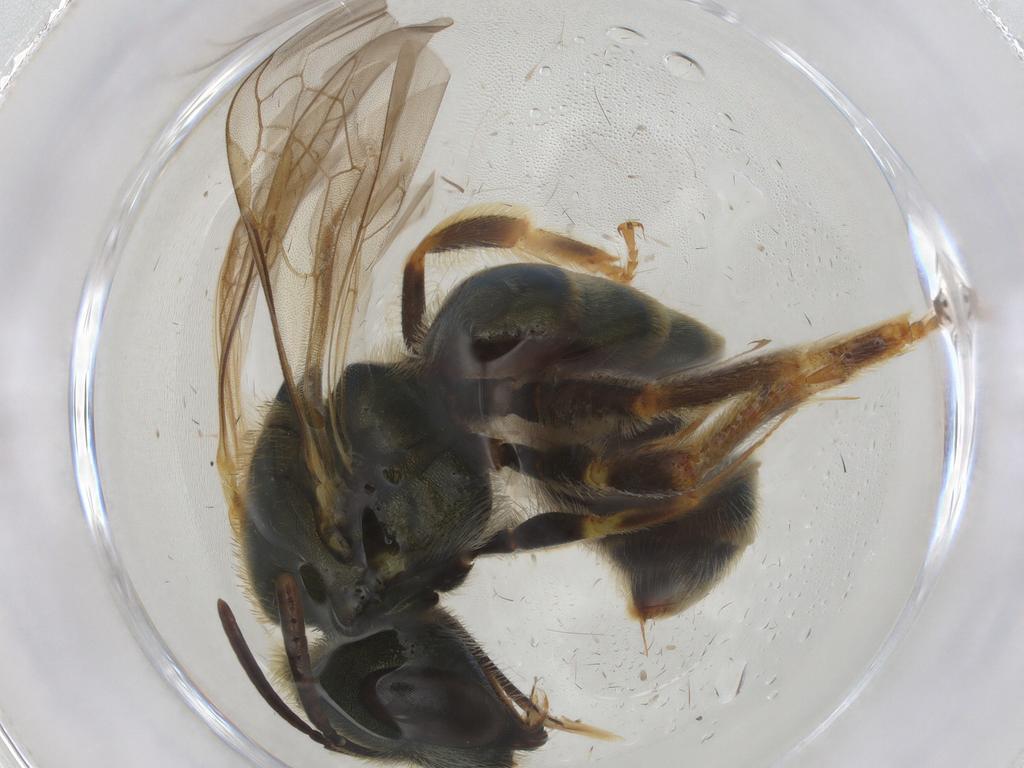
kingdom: Animalia
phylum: Arthropoda
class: Insecta
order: Hymenoptera
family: Halictidae
